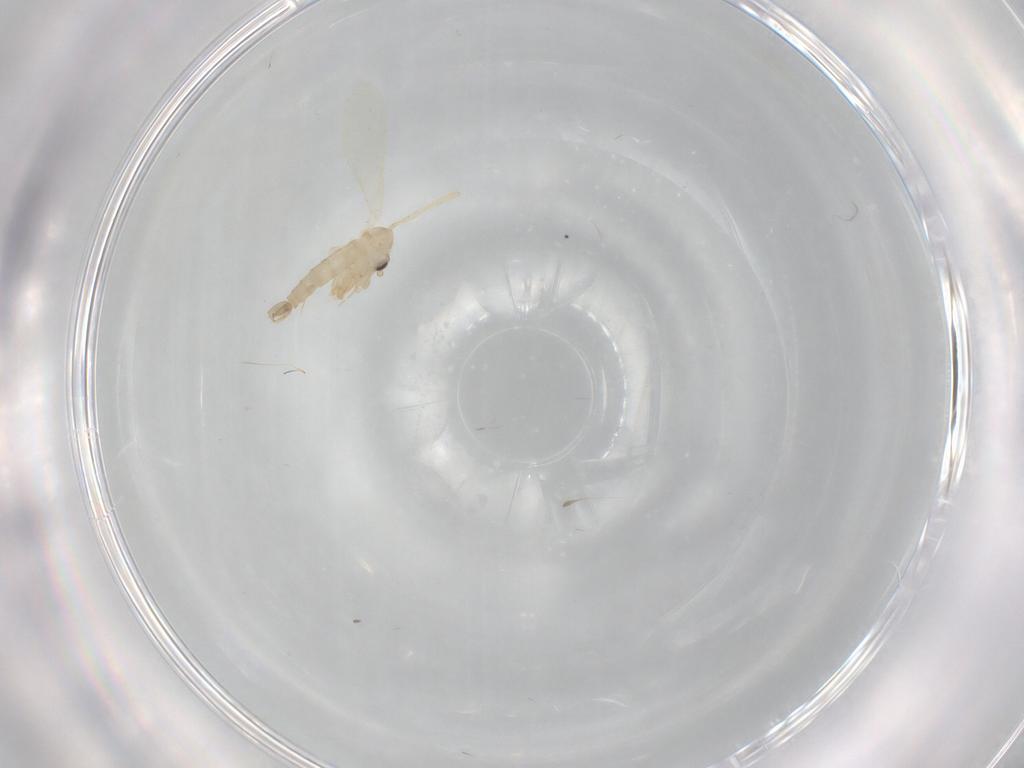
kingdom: Animalia
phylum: Arthropoda
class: Insecta
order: Diptera
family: Psychodidae
